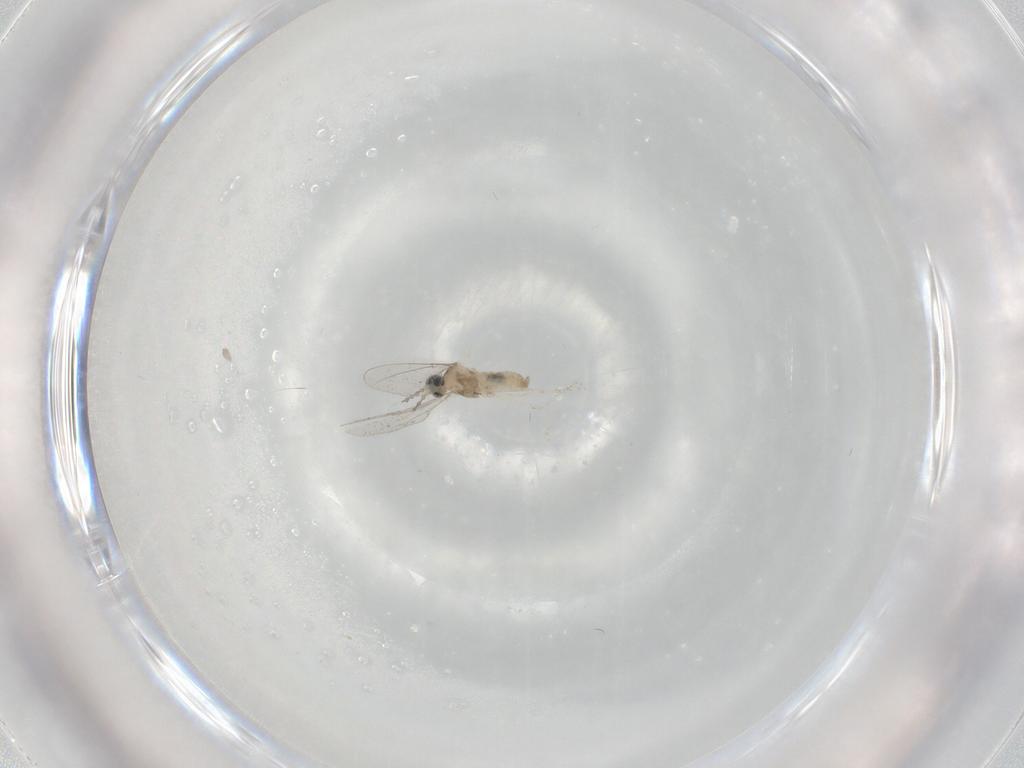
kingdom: Animalia
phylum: Arthropoda
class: Insecta
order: Diptera
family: Cecidomyiidae
